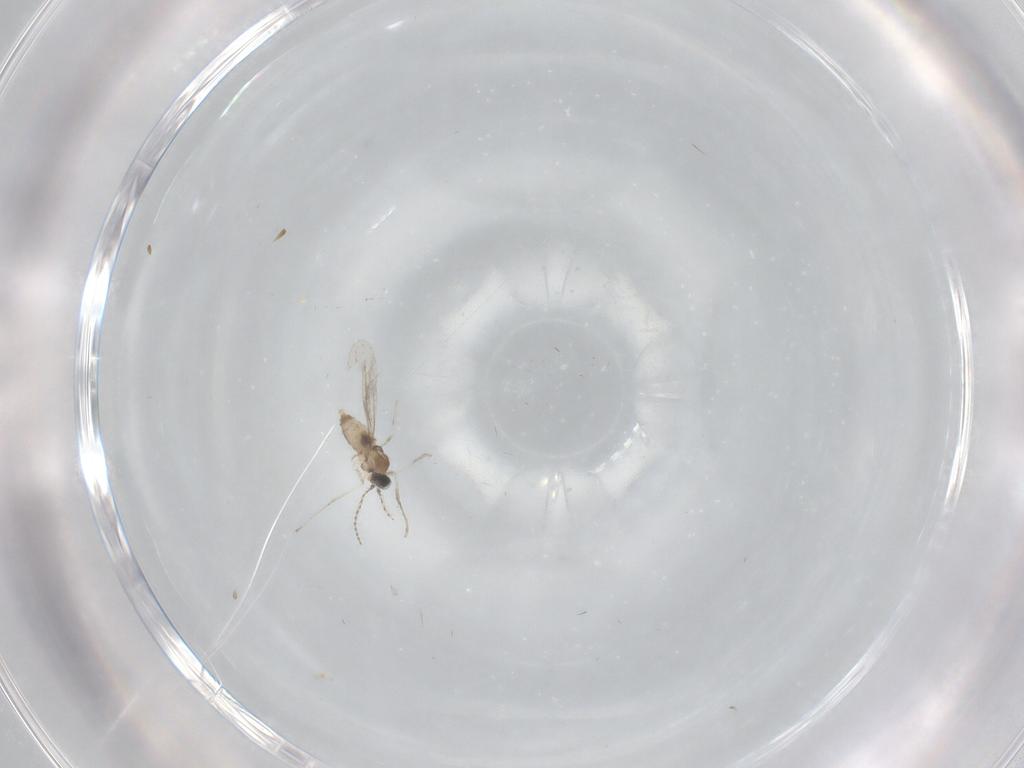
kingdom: Animalia
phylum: Arthropoda
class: Insecta
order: Diptera
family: Cecidomyiidae
